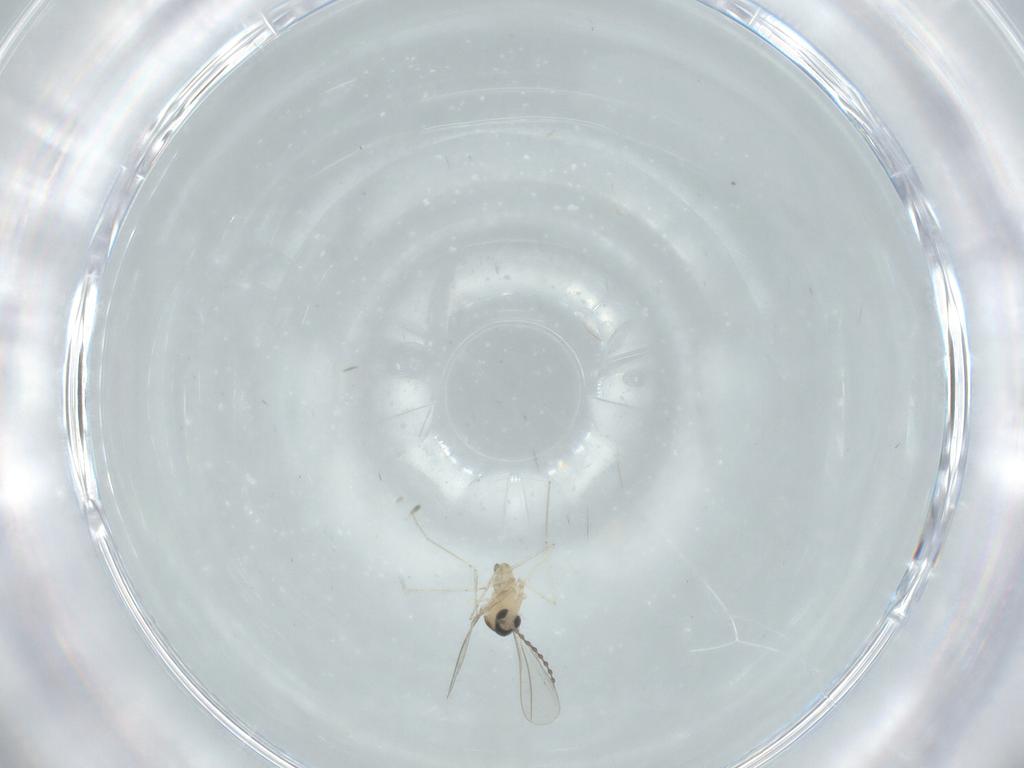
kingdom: Animalia
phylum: Arthropoda
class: Insecta
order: Diptera
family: Cecidomyiidae
